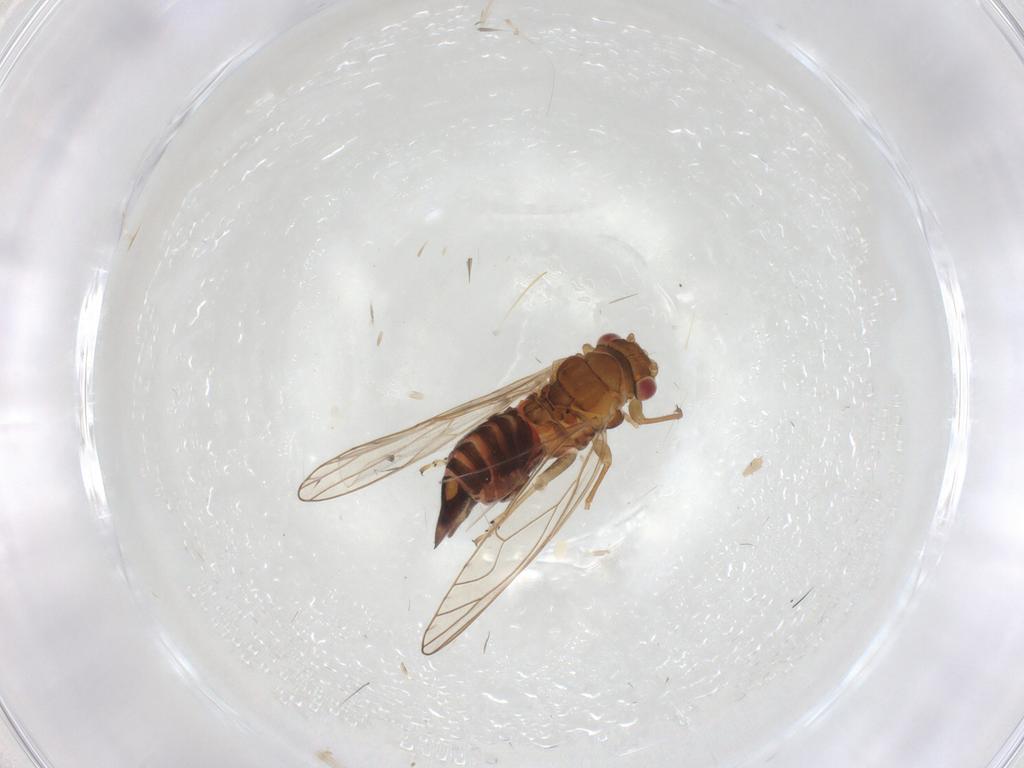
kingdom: Animalia
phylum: Arthropoda
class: Insecta
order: Hemiptera
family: Psyllidae
